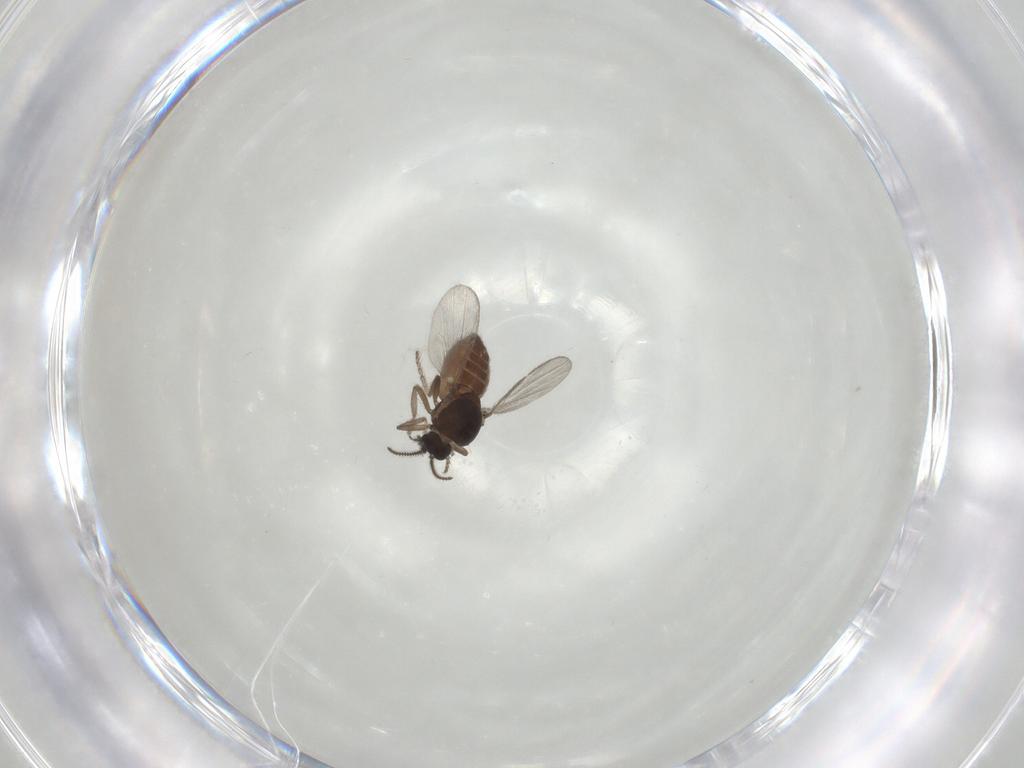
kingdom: Animalia
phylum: Arthropoda
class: Insecta
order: Diptera
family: Ceratopogonidae
